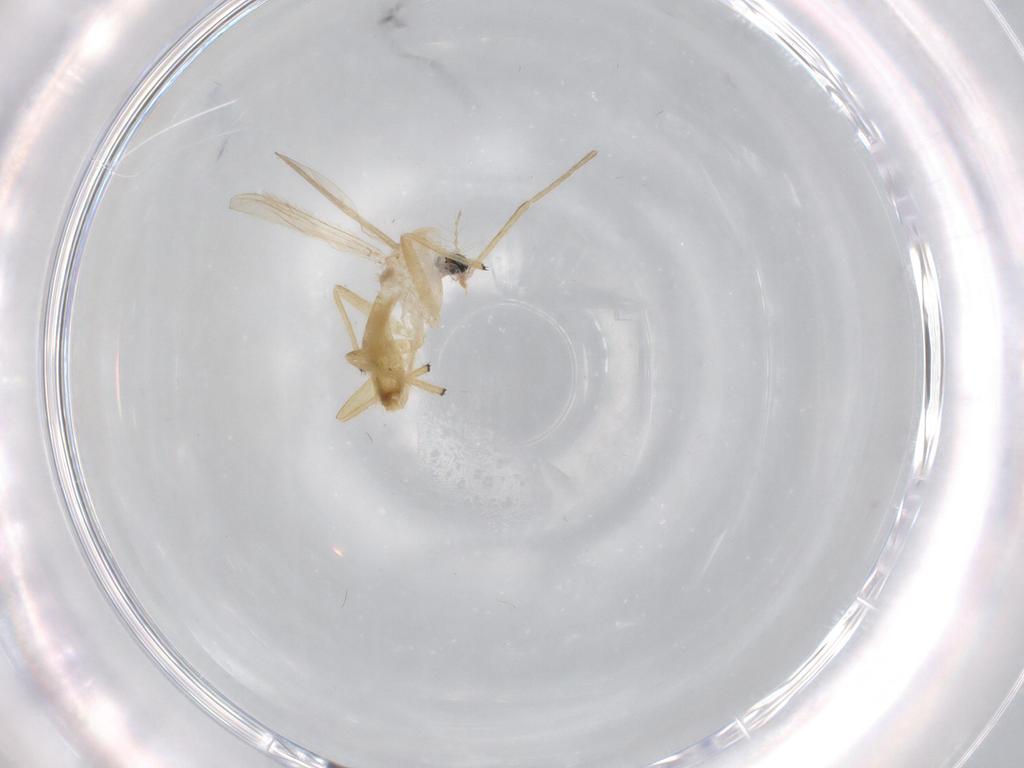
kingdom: Animalia
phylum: Arthropoda
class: Insecta
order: Diptera
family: Chironomidae
